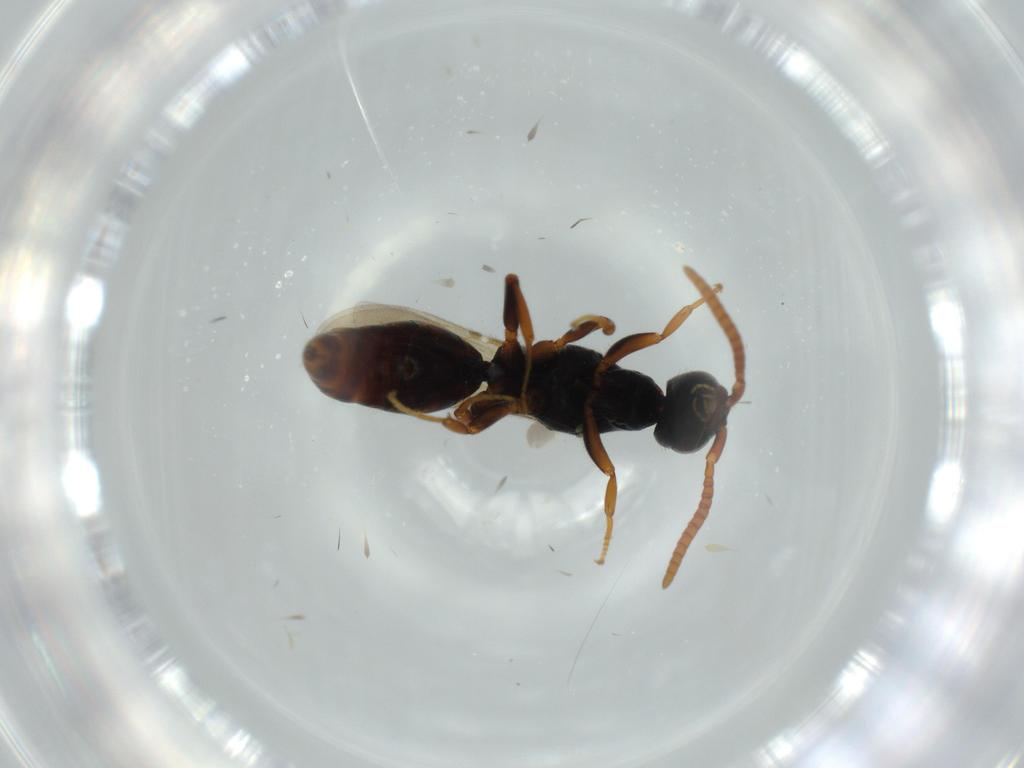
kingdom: Animalia
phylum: Arthropoda
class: Insecta
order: Hymenoptera
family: Bethylidae
